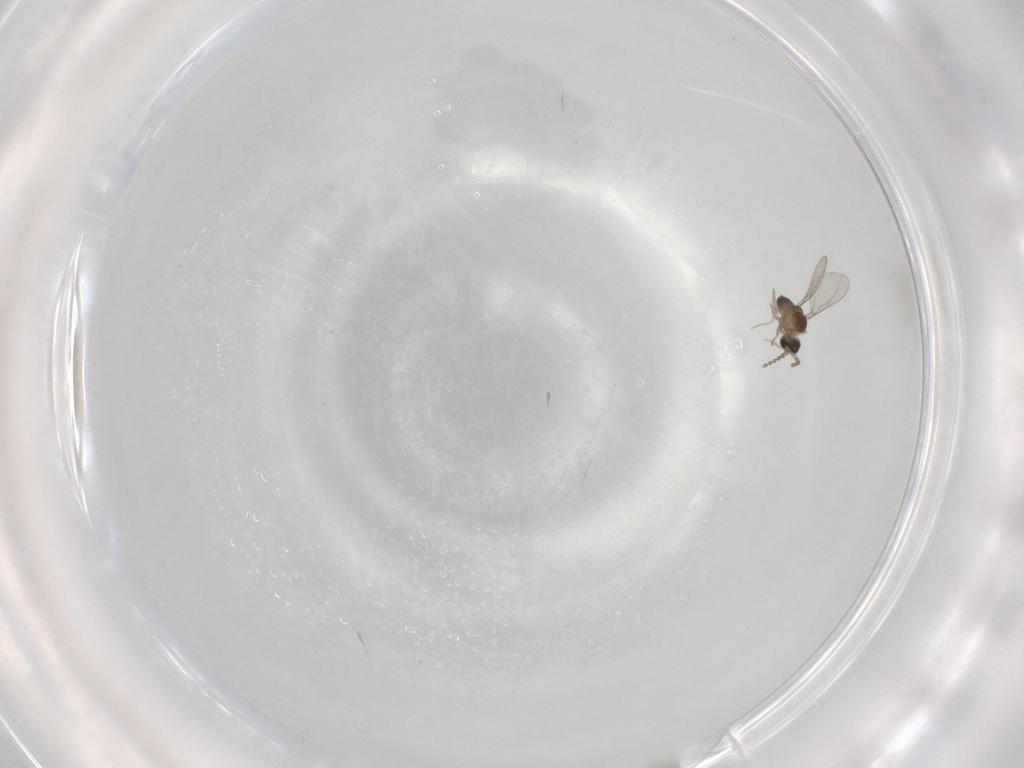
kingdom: Animalia
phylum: Arthropoda
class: Insecta
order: Diptera
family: Cecidomyiidae
